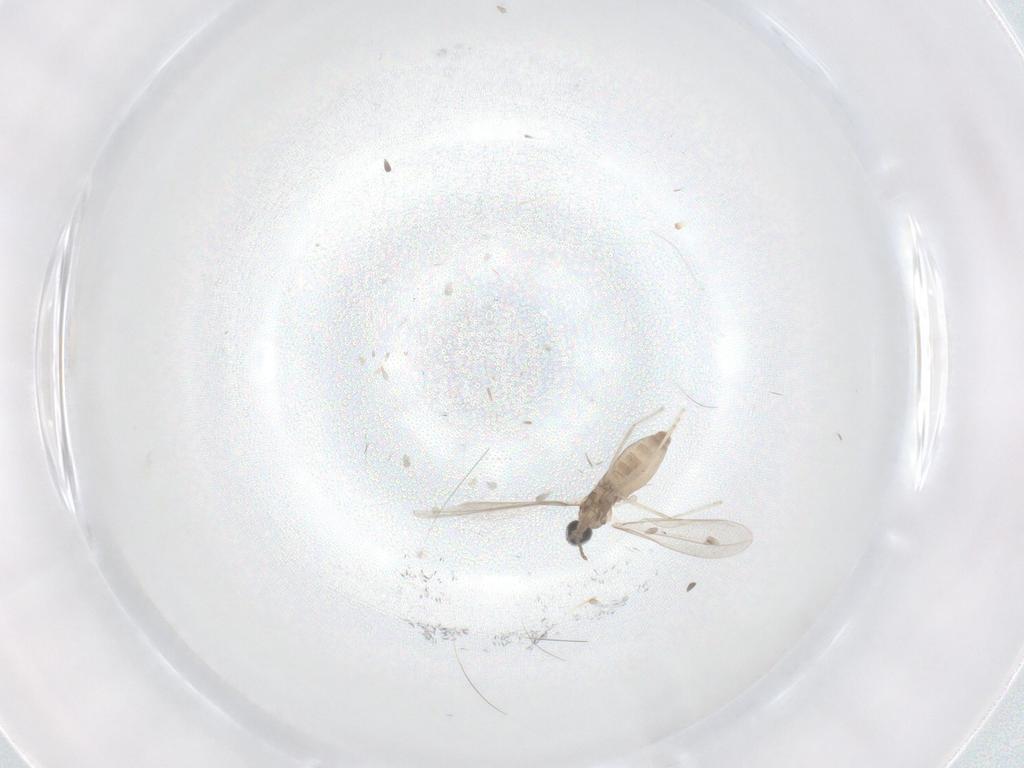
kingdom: Animalia
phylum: Arthropoda
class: Insecta
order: Diptera
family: Cecidomyiidae
